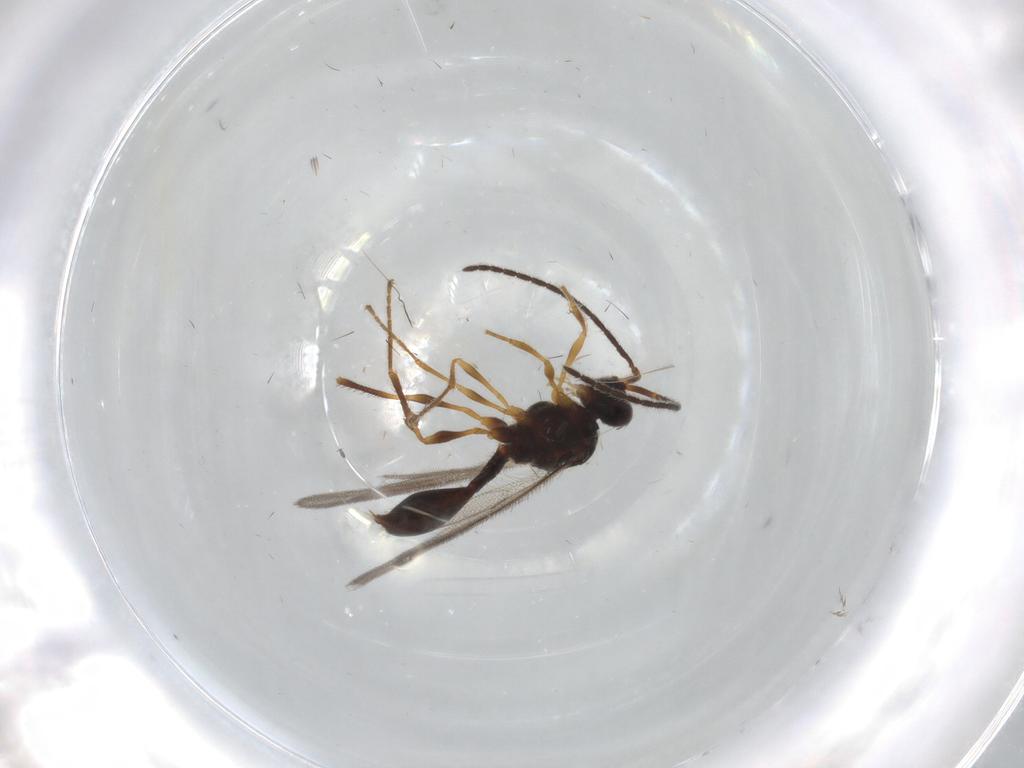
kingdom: Animalia
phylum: Arthropoda
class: Insecta
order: Hymenoptera
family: Diapriidae
